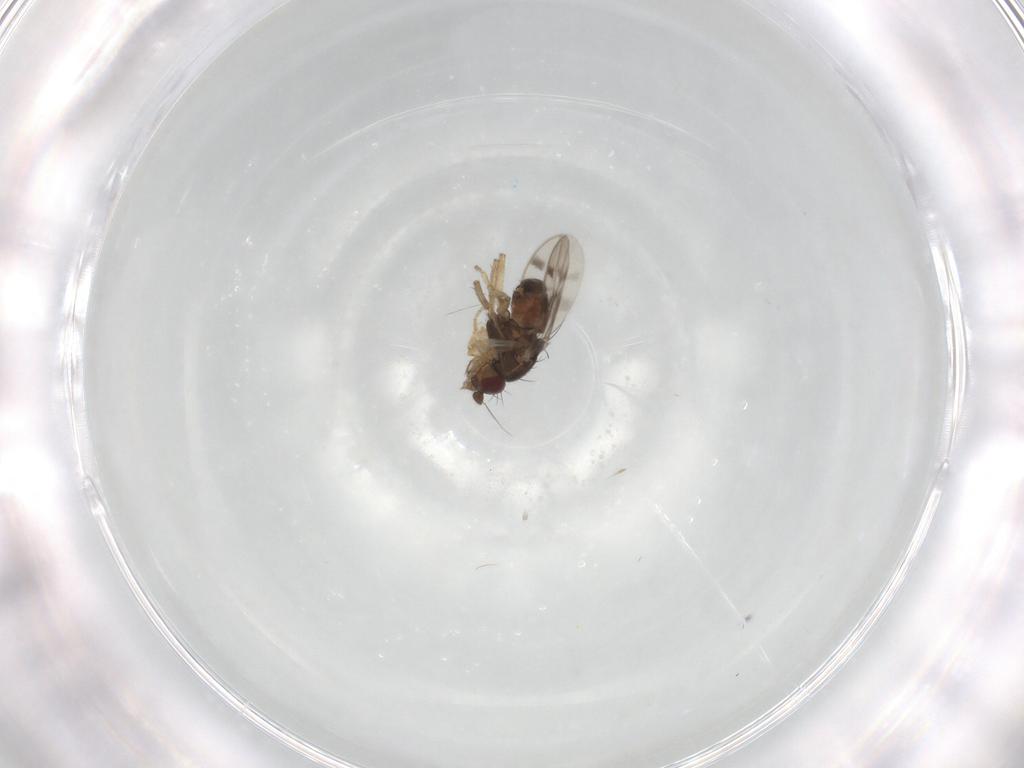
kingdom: Animalia
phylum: Arthropoda
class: Insecta
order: Diptera
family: Sphaeroceridae
